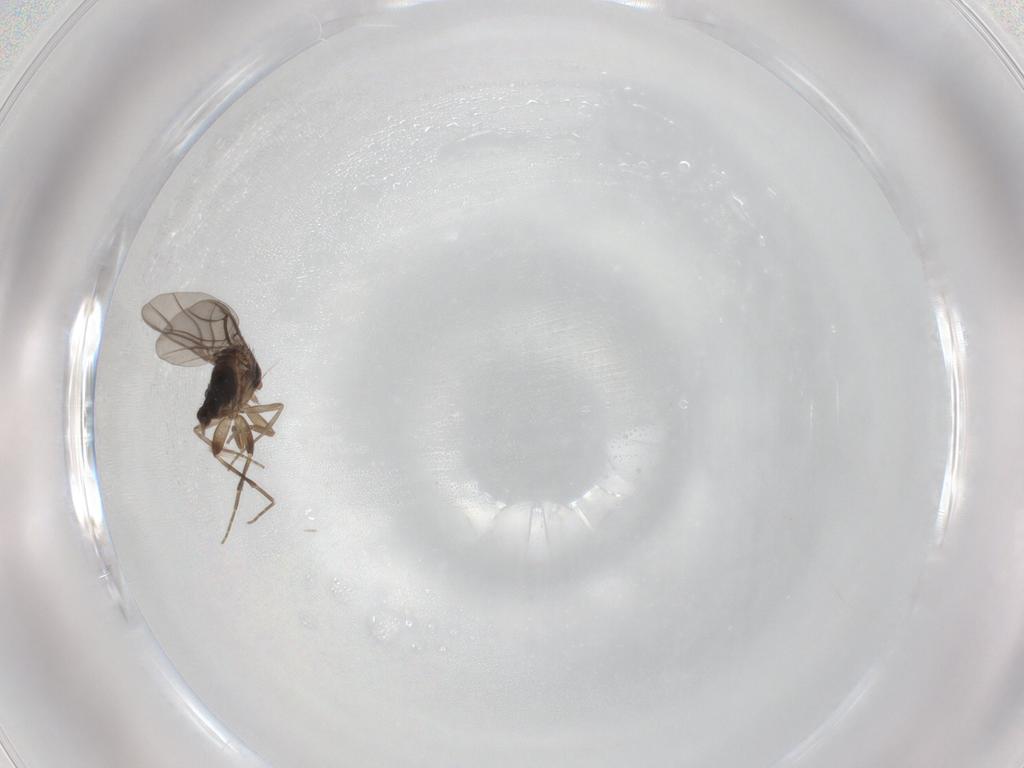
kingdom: Animalia
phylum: Arthropoda
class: Insecta
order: Diptera
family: Phoridae
